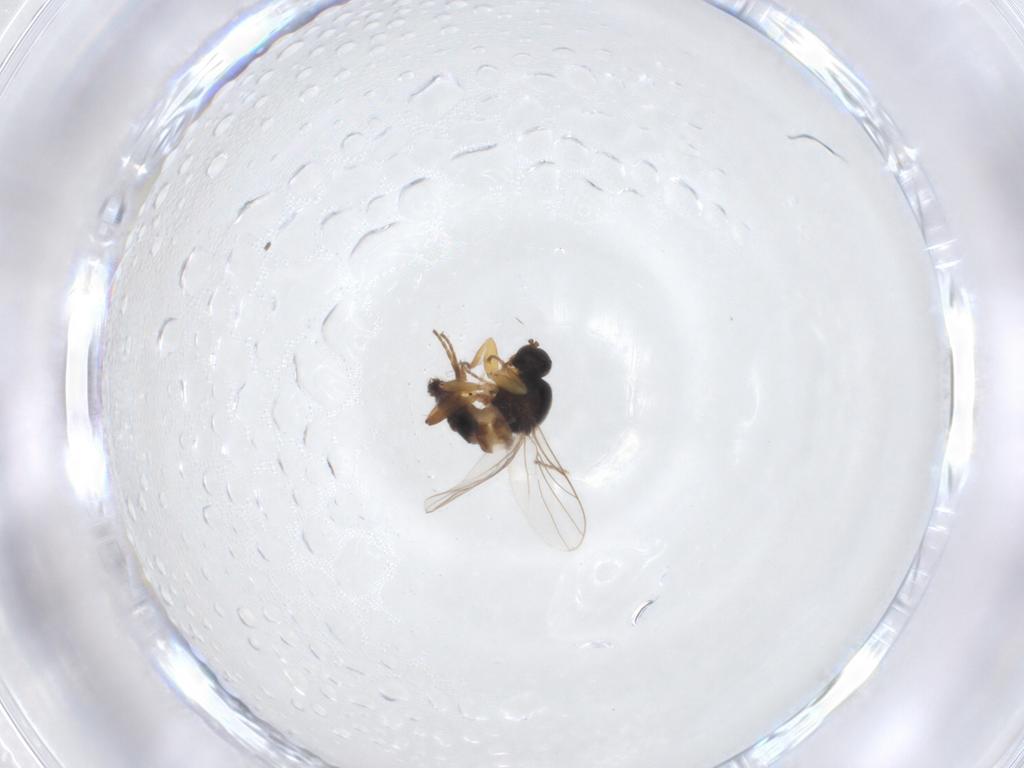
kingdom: Animalia
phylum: Arthropoda
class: Insecta
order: Diptera
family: Hybotidae
